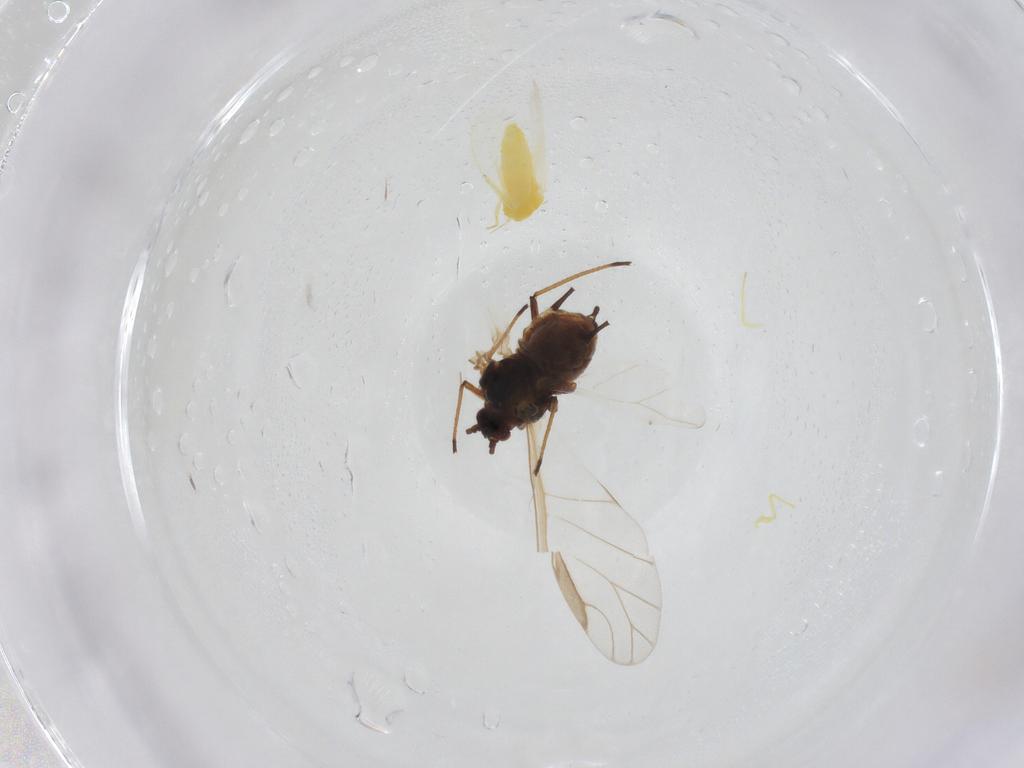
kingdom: Animalia
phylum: Arthropoda
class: Insecta
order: Hemiptera
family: Aleyrodidae
